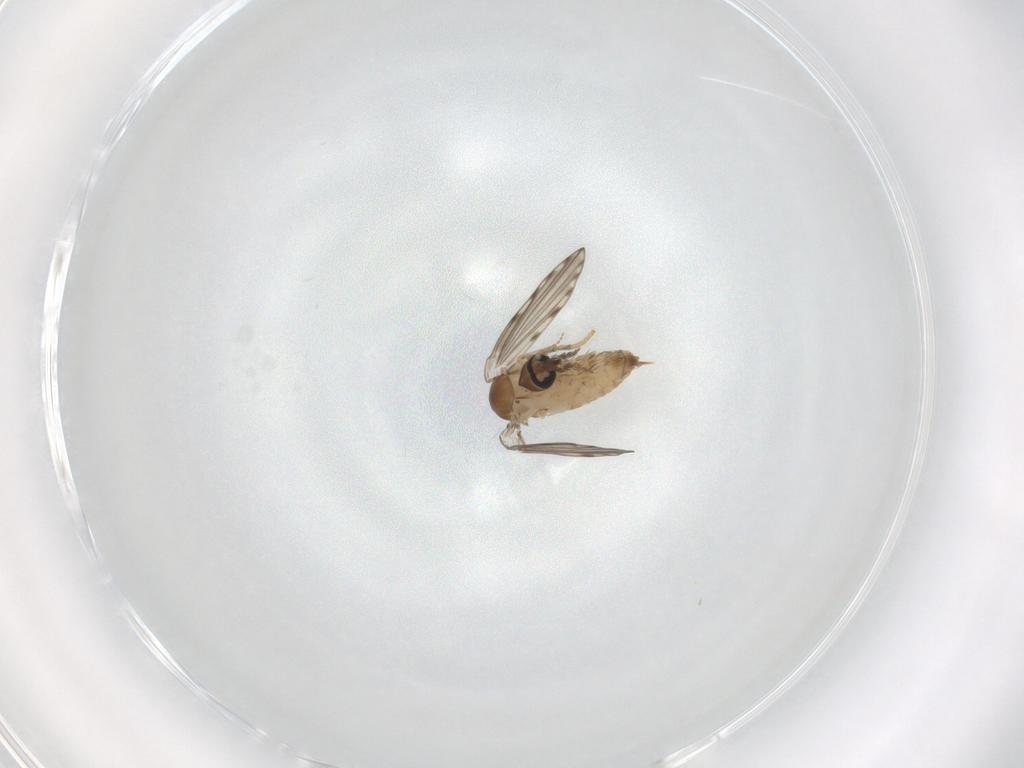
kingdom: Animalia
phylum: Arthropoda
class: Insecta
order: Diptera
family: Psychodidae
